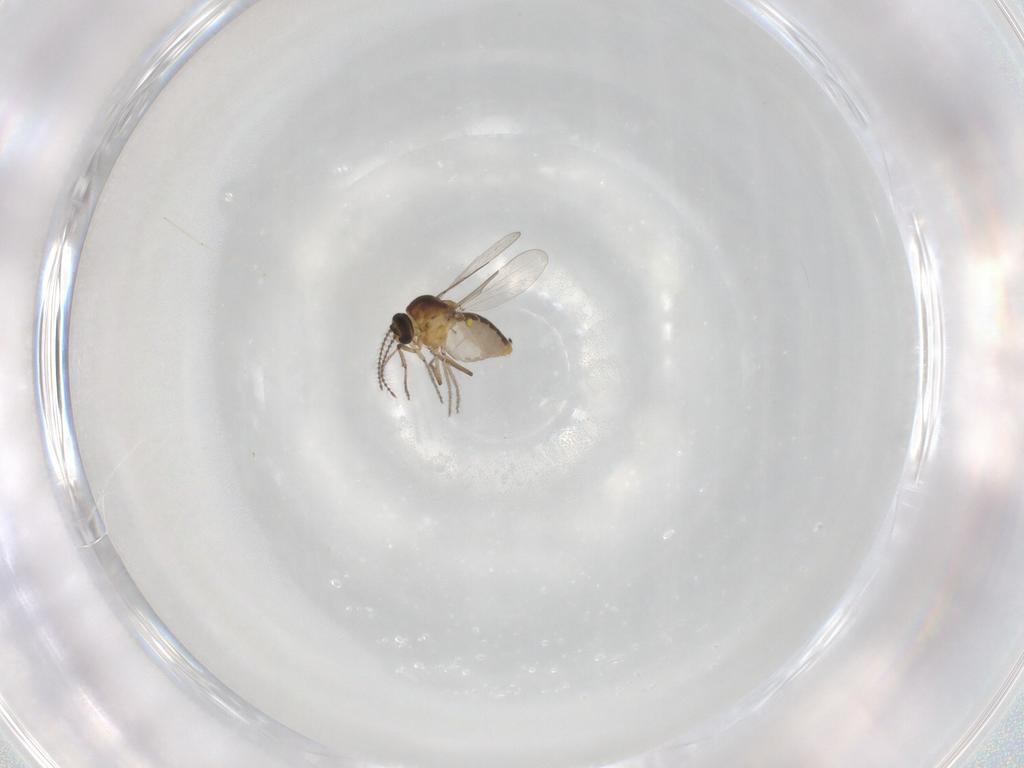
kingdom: Animalia
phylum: Arthropoda
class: Insecta
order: Diptera
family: Ceratopogonidae
